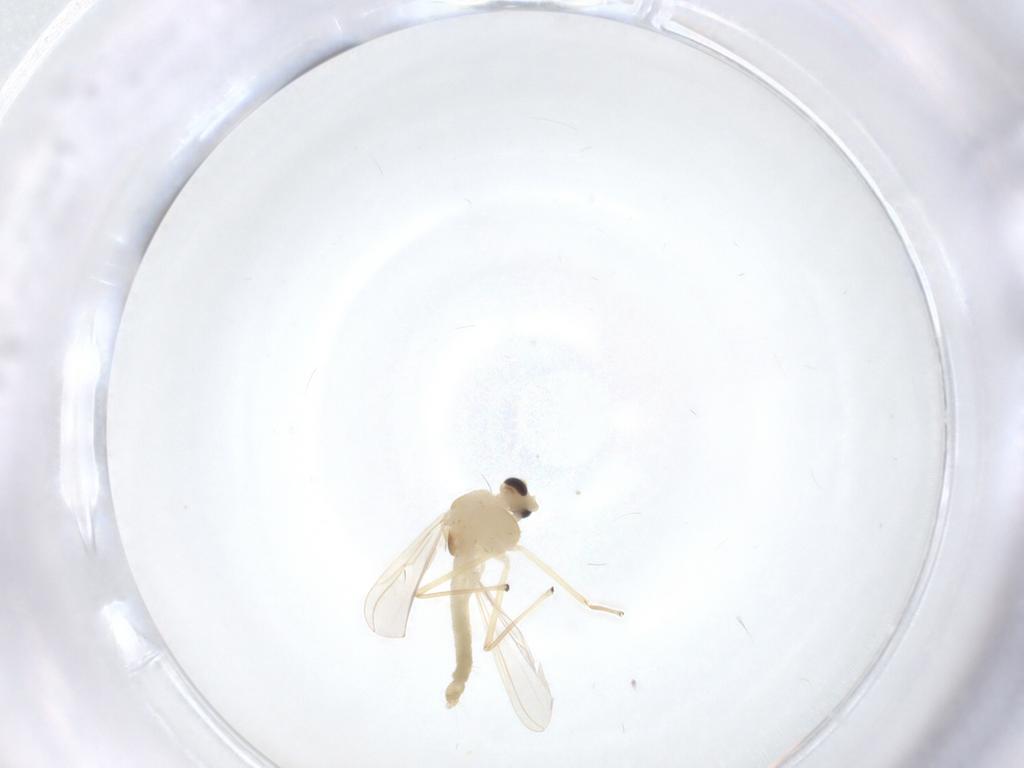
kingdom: Animalia
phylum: Arthropoda
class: Insecta
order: Diptera
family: Chironomidae
